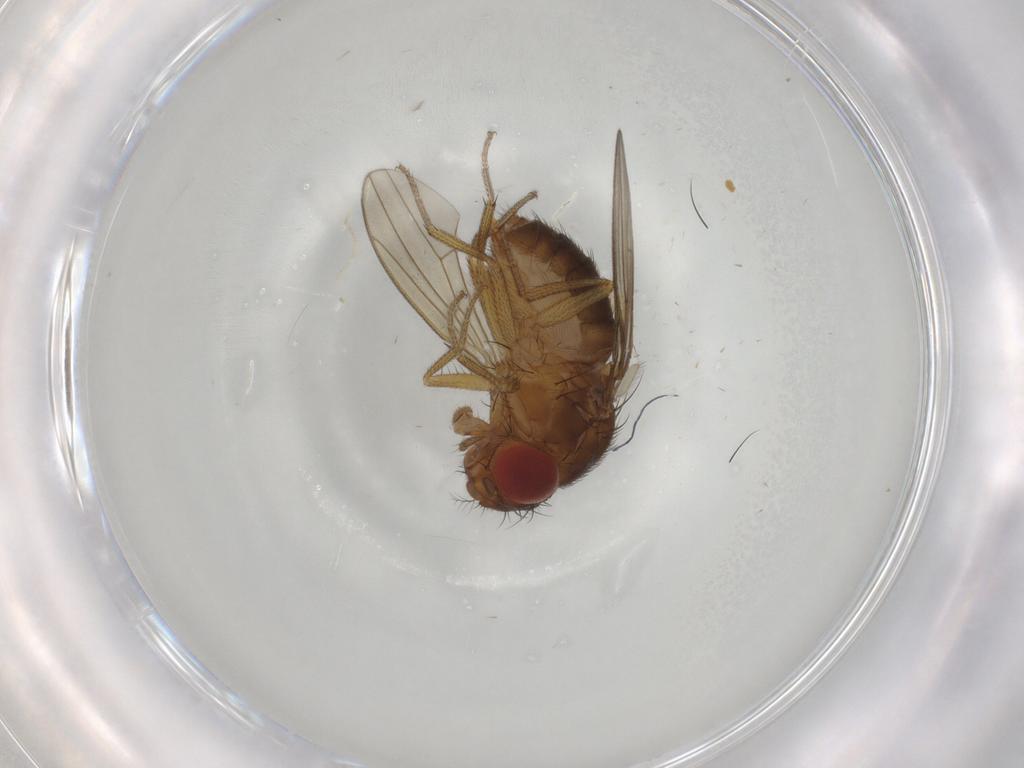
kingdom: Animalia
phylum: Arthropoda
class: Insecta
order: Diptera
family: Drosophilidae
